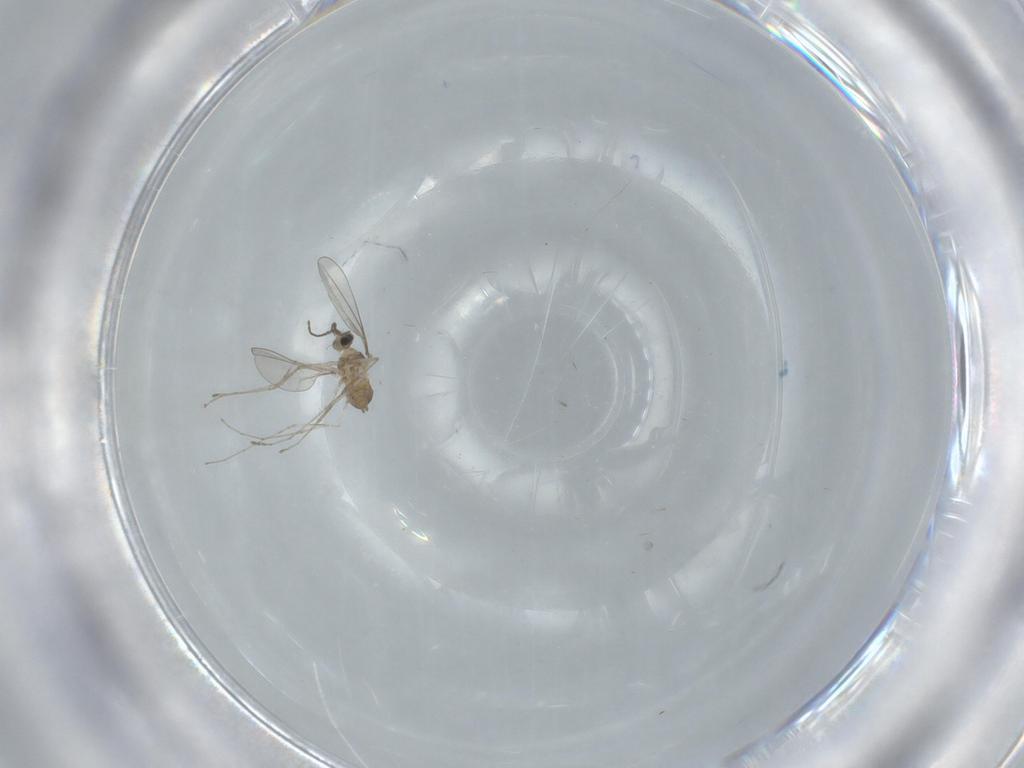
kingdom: Animalia
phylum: Arthropoda
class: Insecta
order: Diptera
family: Cecidomyiidae
